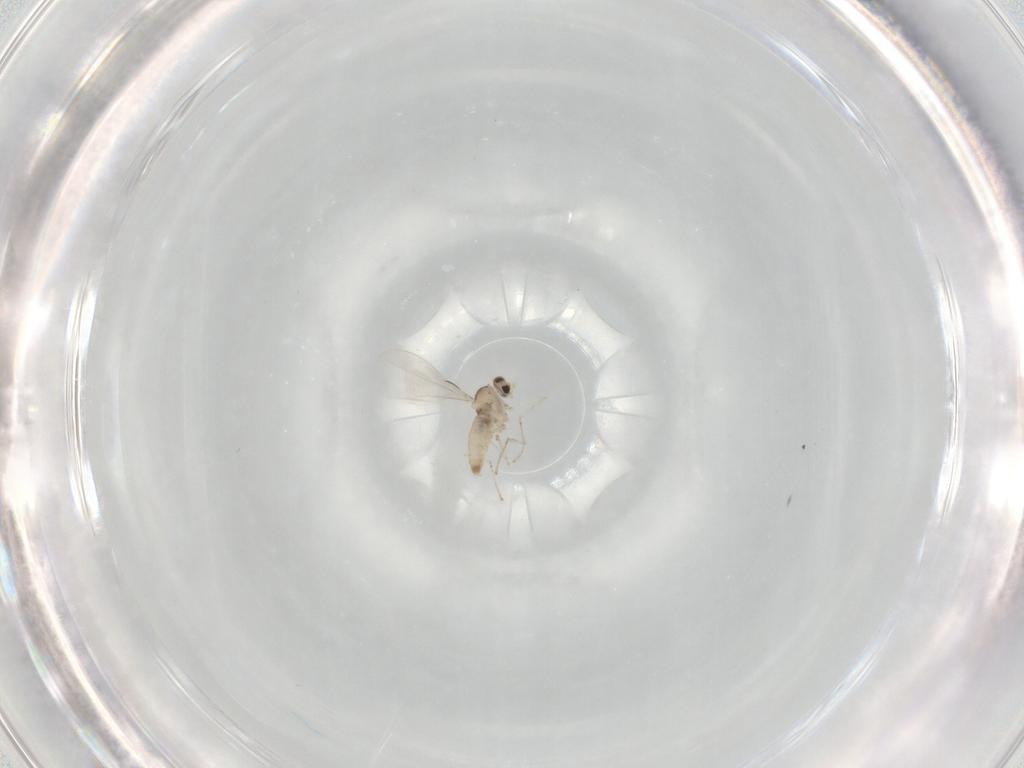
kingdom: Animalia
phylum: Arthropoda
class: Insecta
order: Diptera
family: Cecidomyiidae
